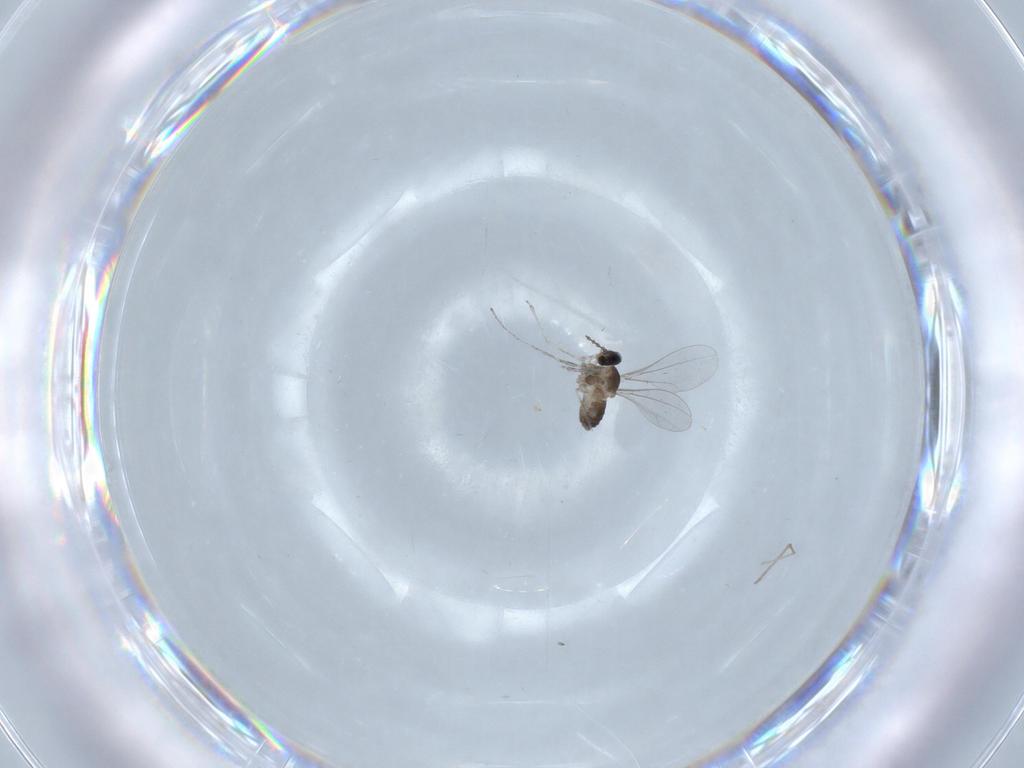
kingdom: Animalia
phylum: Arthropoda
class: Insecta
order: Diptera
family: Cecidomyiidae
